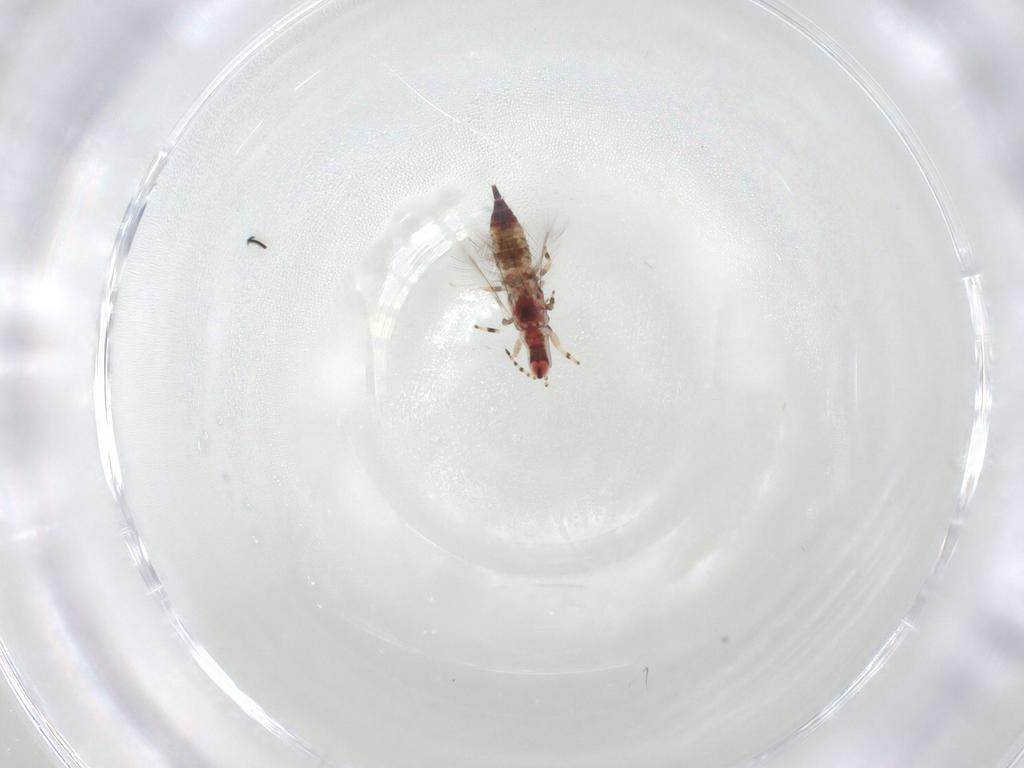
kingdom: Animalia
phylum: Arthropoda
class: Insecta
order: Thysanoptera
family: Phlaeothripidae
